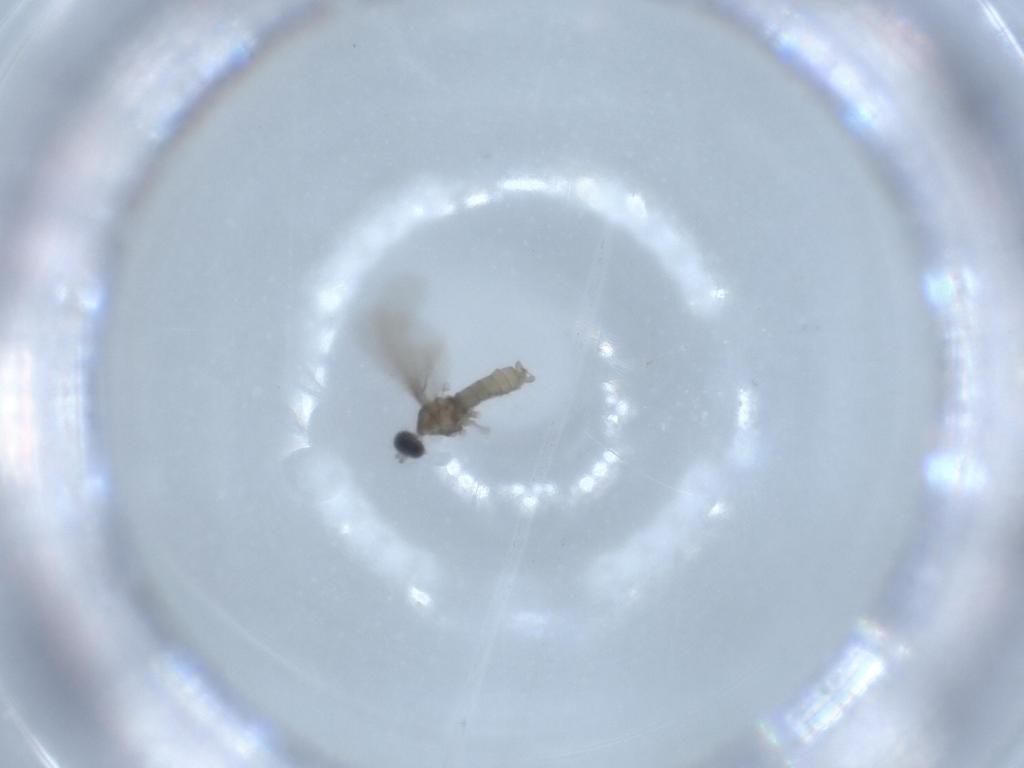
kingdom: Animalia
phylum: Arthropoda
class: Insecta
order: Diptera
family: Cecidomyiidae
